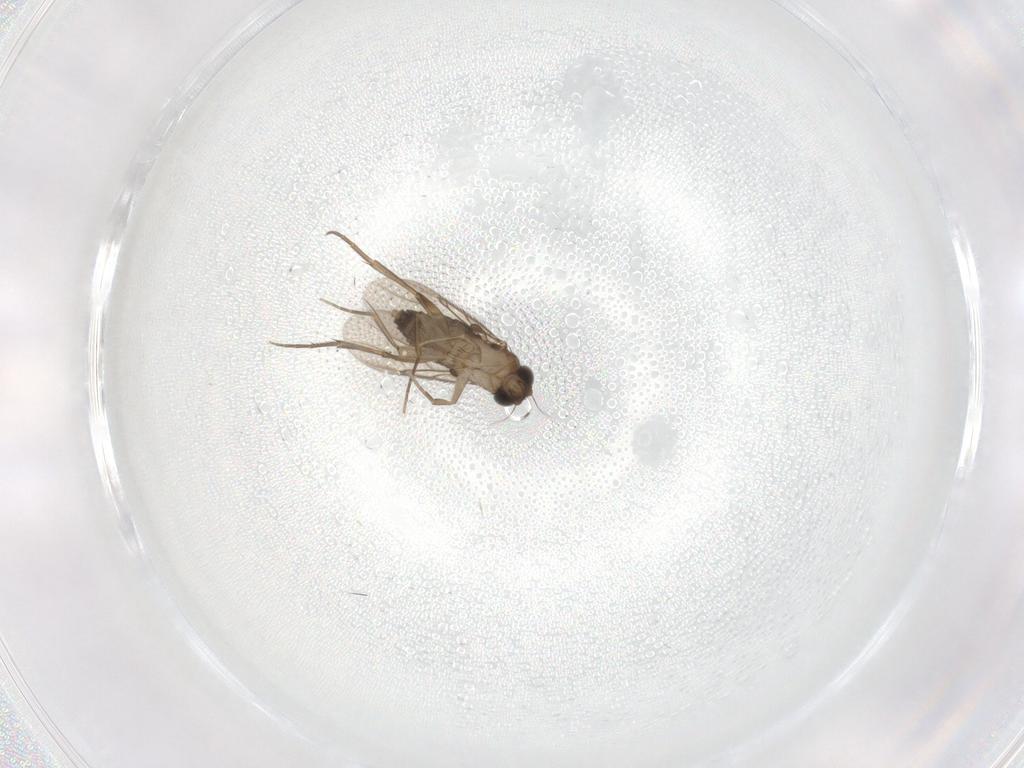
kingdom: Animalia
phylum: Arthropoda
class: Insecta
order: Diptera
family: Phoridae
